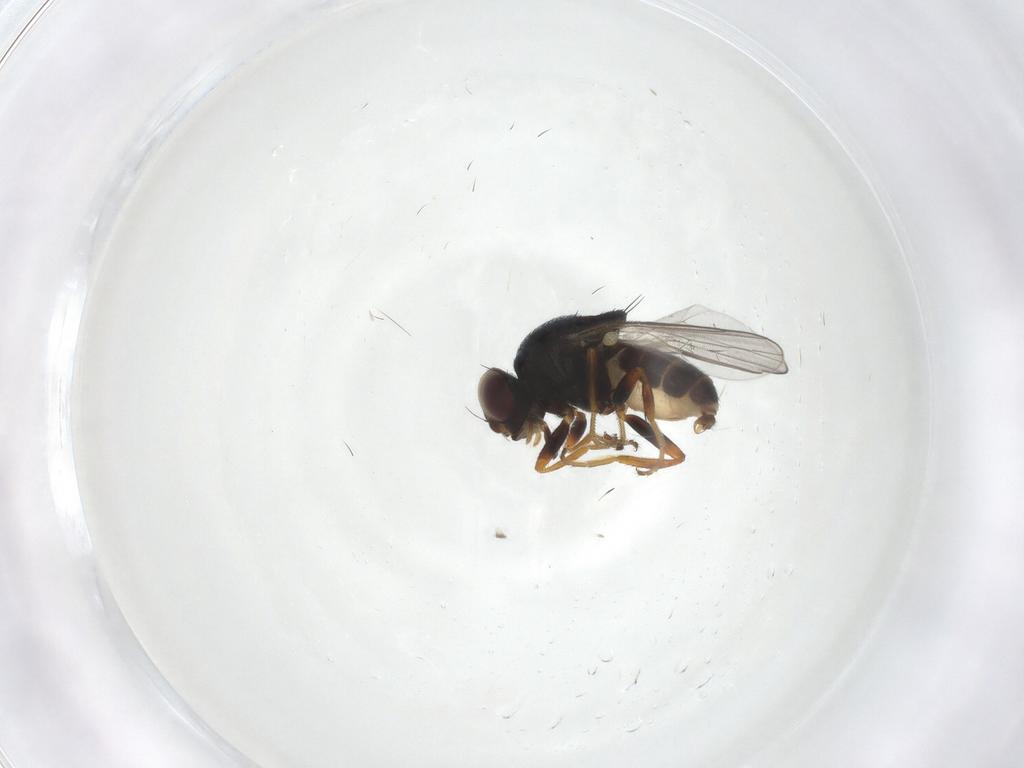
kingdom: Animalia
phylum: Arthropoda
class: Insecta
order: Diptera
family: Chloropidae
